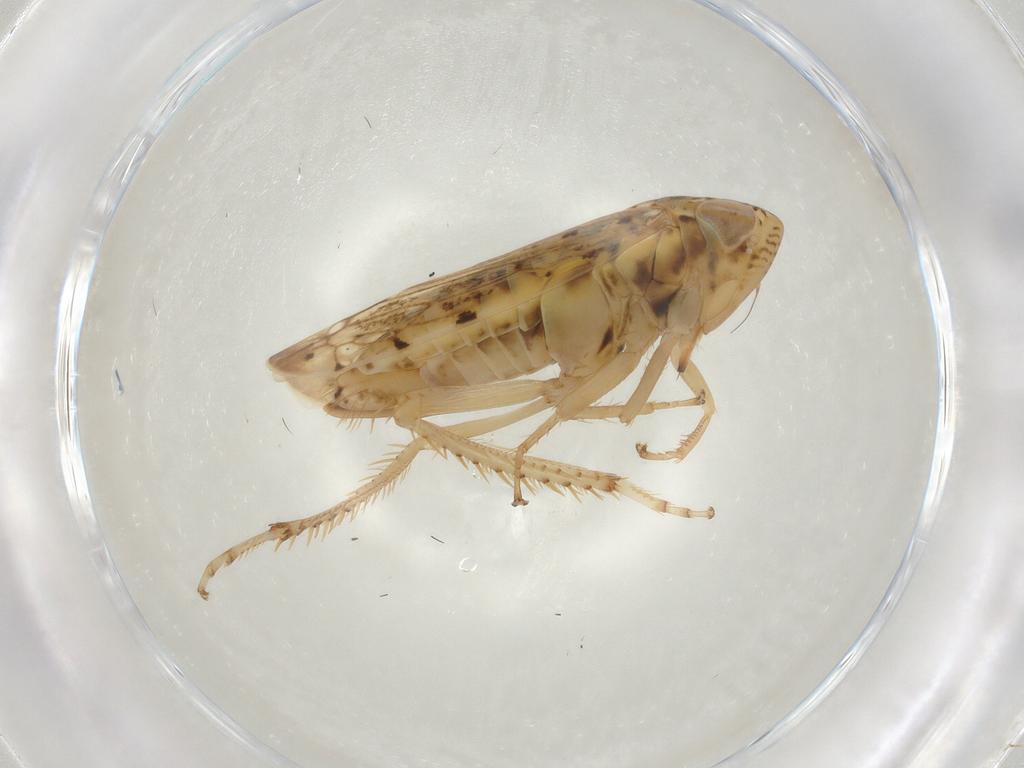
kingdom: Animalia
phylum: Arthropoda
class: Insecta
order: Hemiptera
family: Cicadellidae
